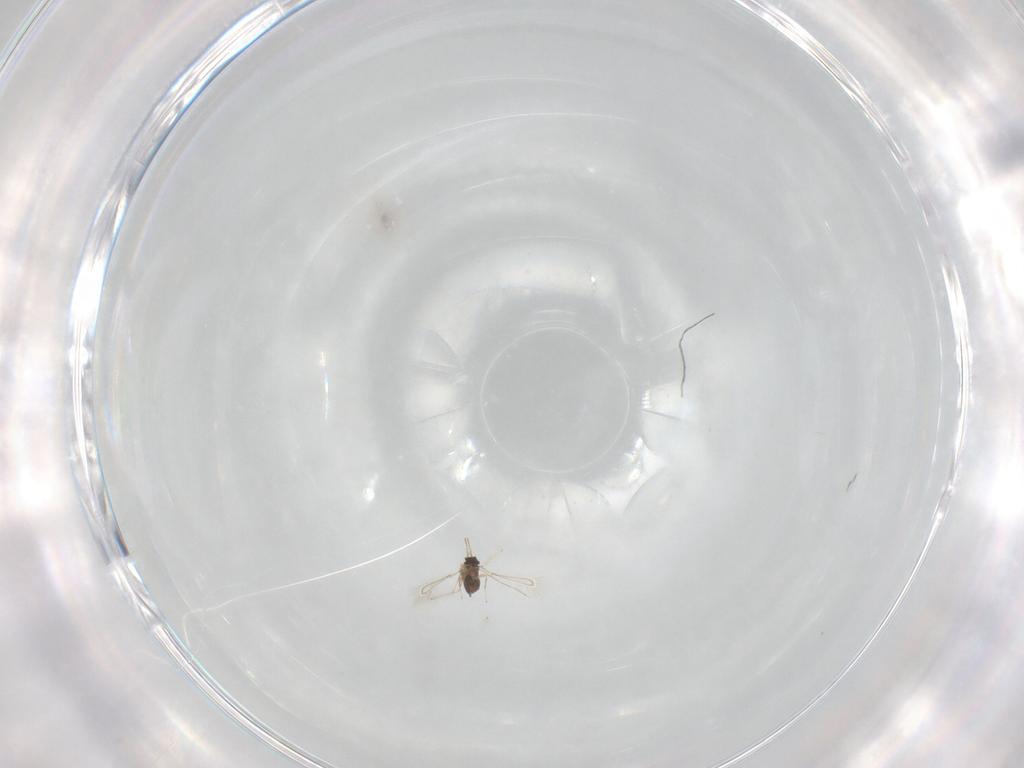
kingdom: Animalia
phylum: Arthropoda
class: Insecta
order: Hymenoptera
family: Mymaridae
